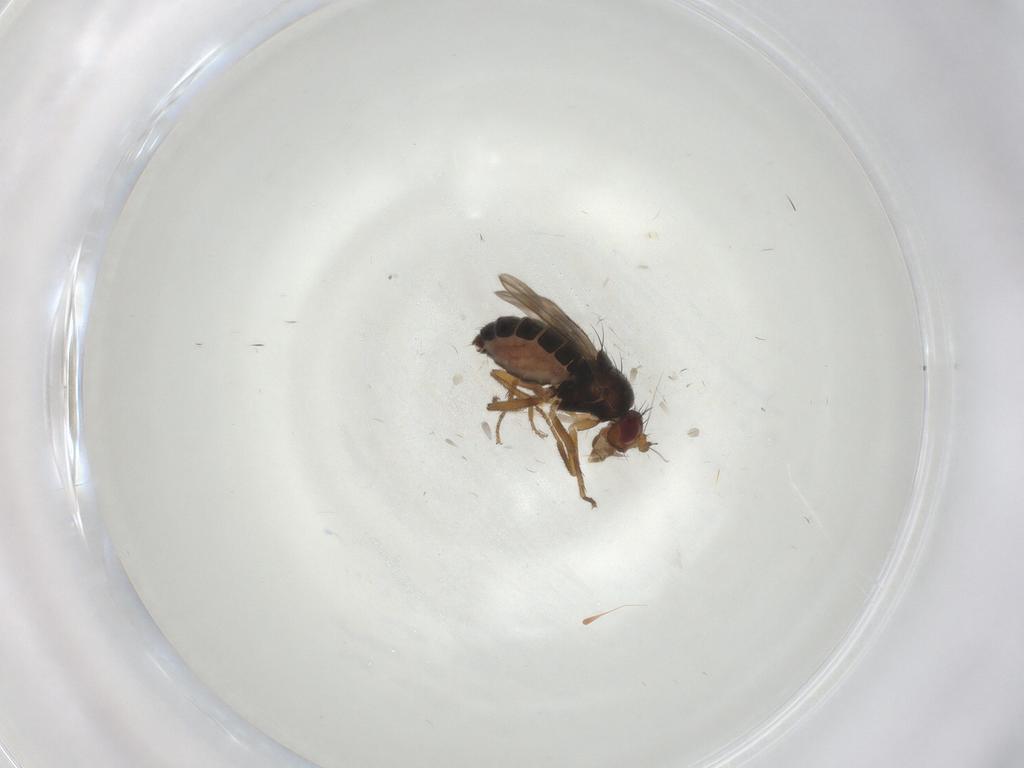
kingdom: Animalia
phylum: Arthropoda
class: Insecta
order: Diptera
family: Sphaeroceridae
